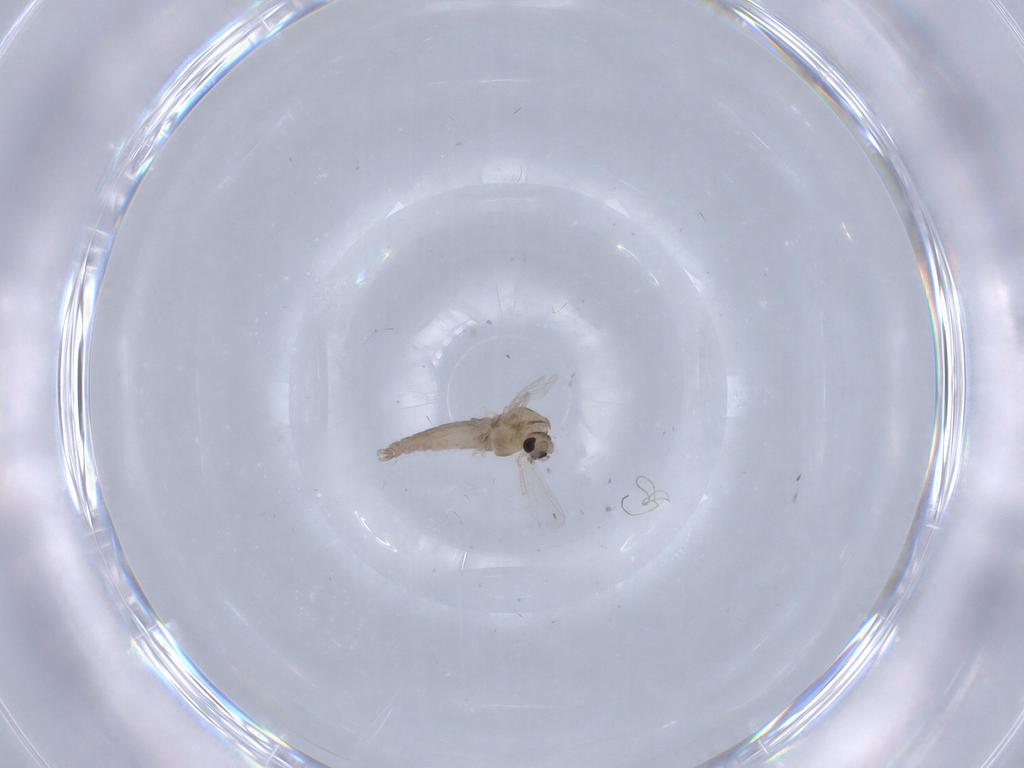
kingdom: Animalia
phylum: Arthropoda
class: Insecta
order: Diptera
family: Chironomidae
